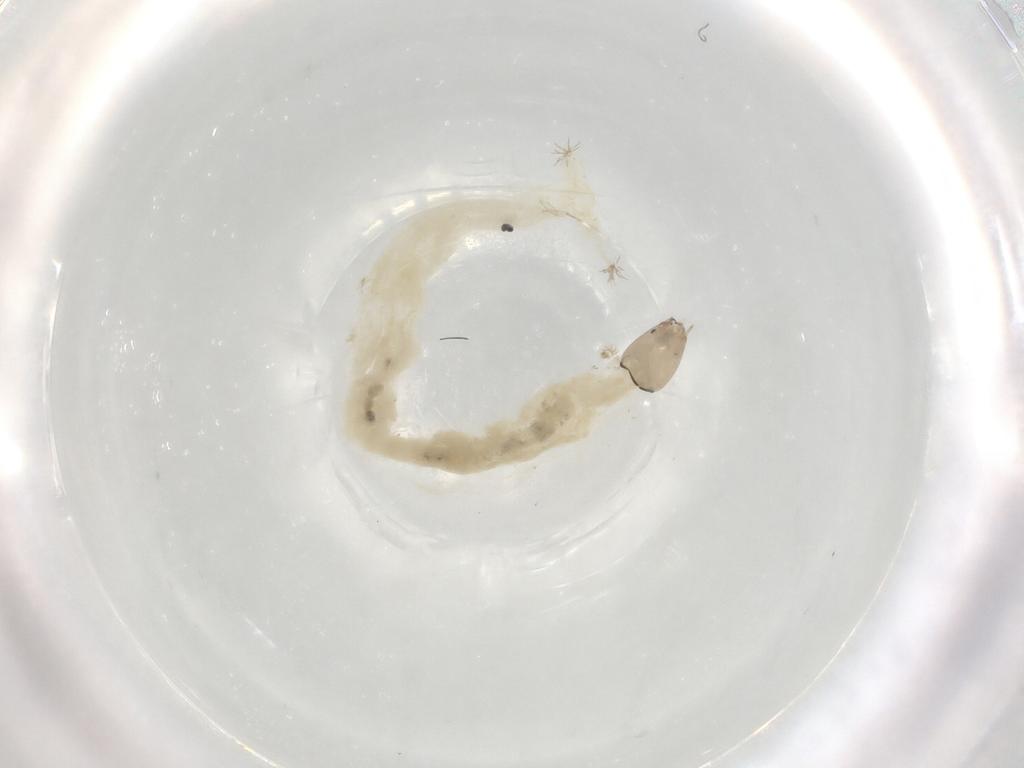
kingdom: Animalia
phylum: Arthropoda
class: Insecta
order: Diptera
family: Chironomidae
